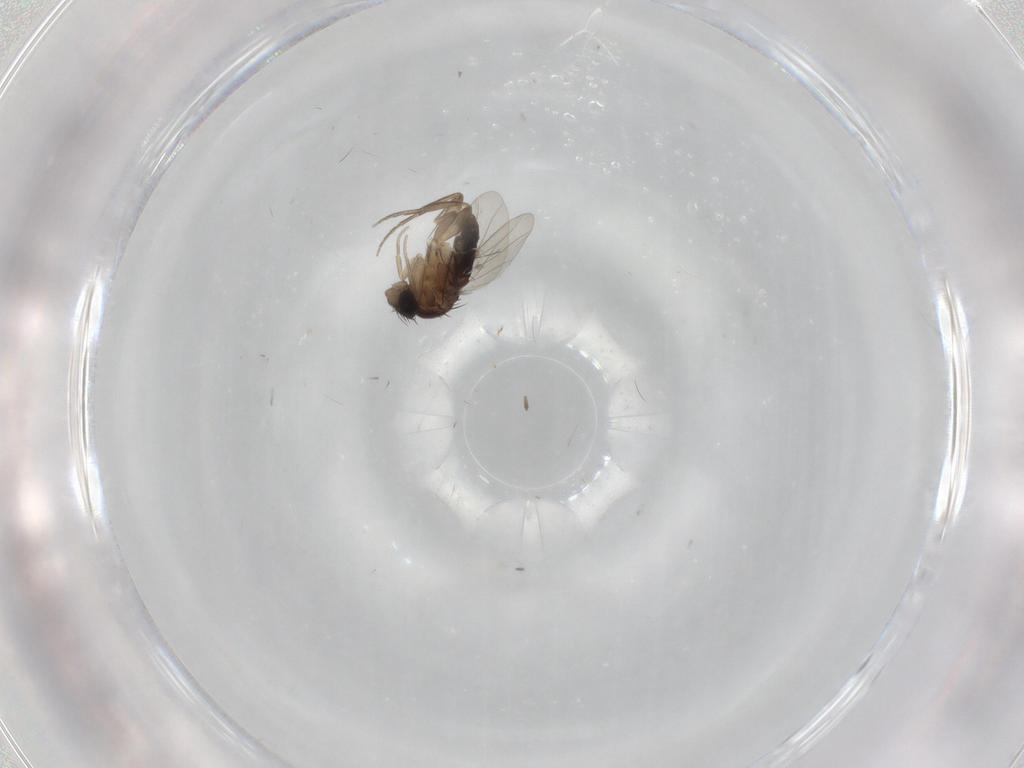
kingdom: Animalia
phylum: Arthropoda
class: Insecta
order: Diptera
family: Phoridae
